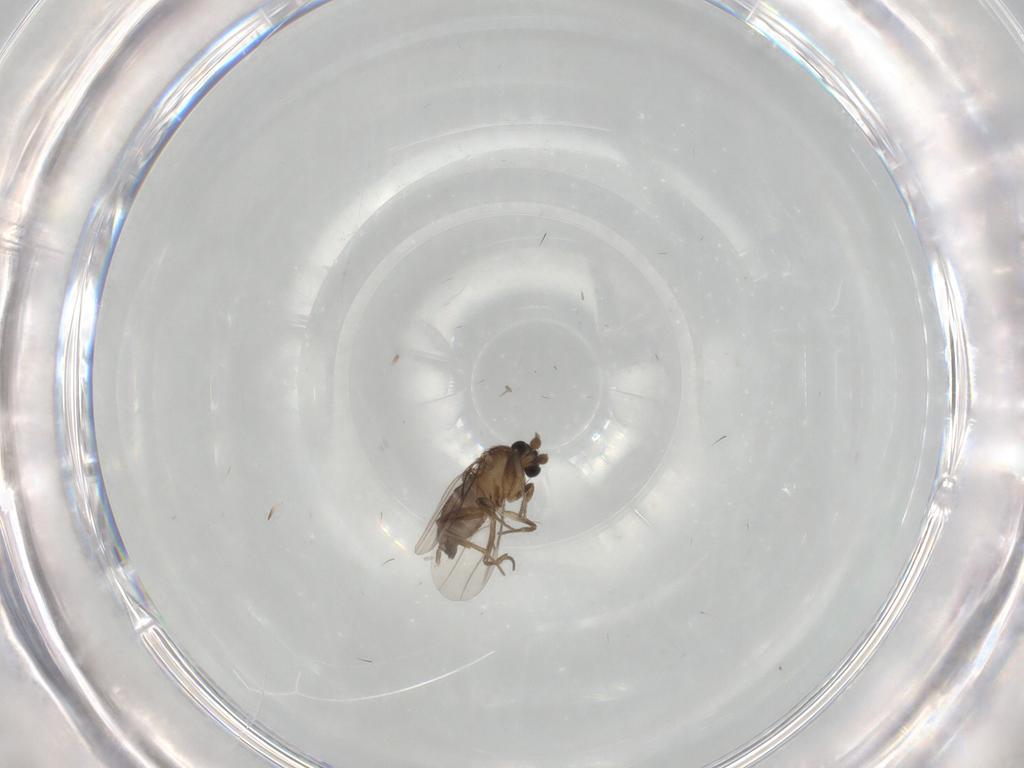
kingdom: Animalia
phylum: Arthropoda
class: Insecta
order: Diptera
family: Phoridae
